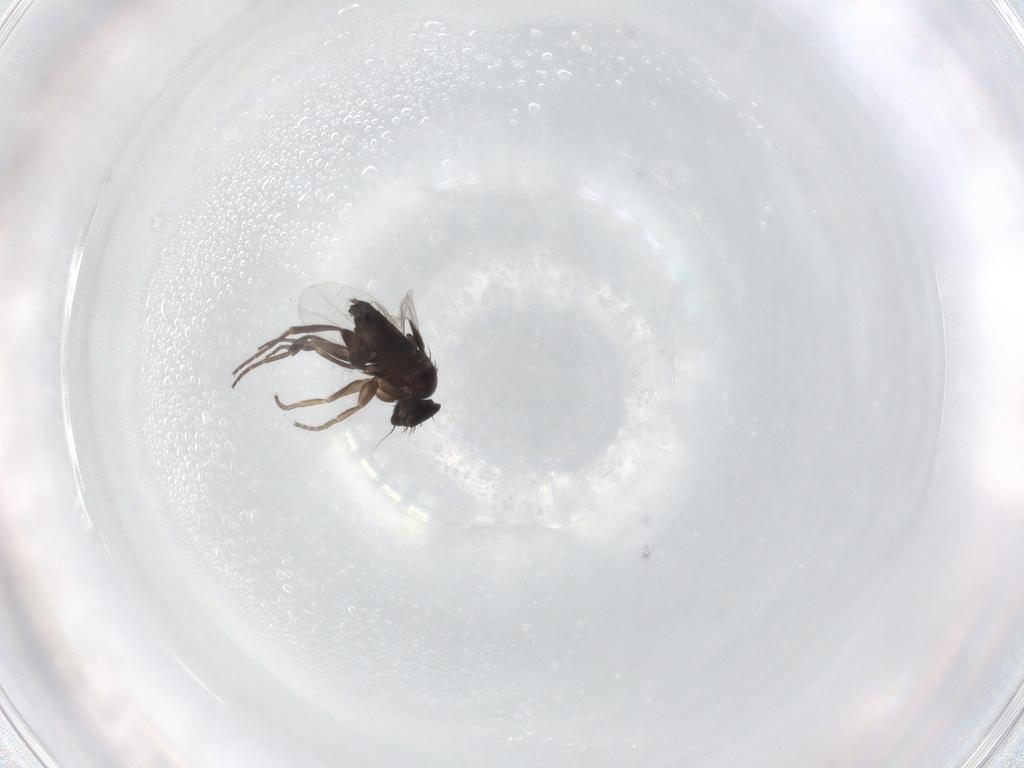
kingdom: Animalia
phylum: Arthropoda
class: Insecta
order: Diptera
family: Phoridae
